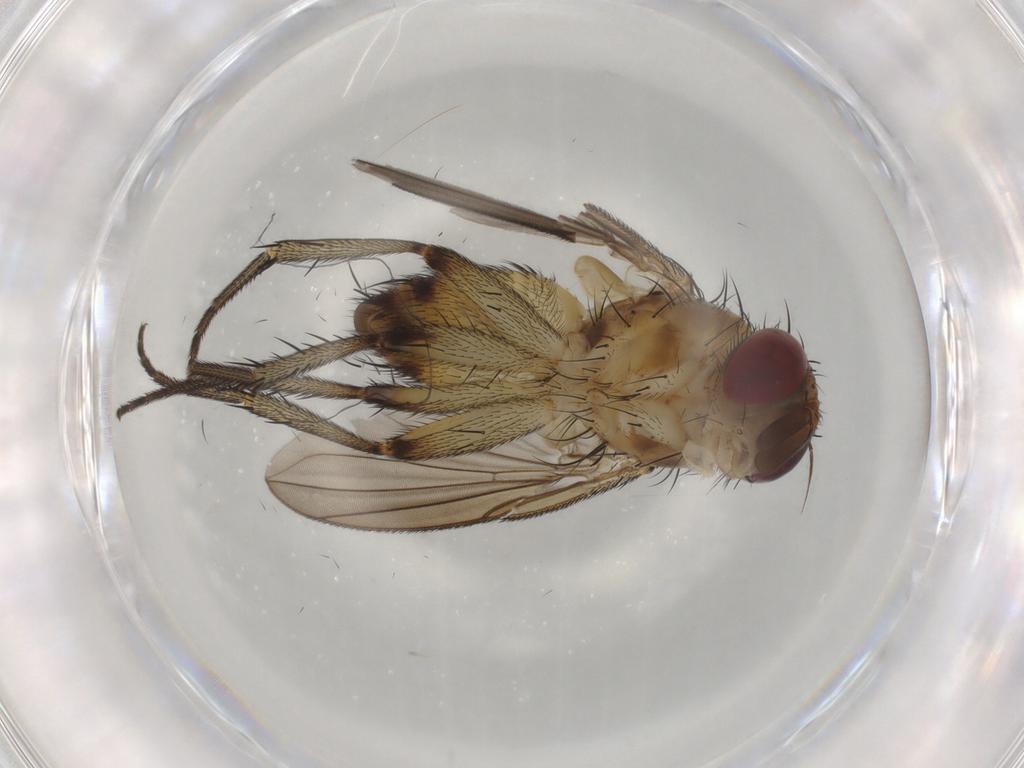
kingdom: Animalia
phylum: Arthropoda
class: Insecta
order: Diptera
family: Tachinidae
